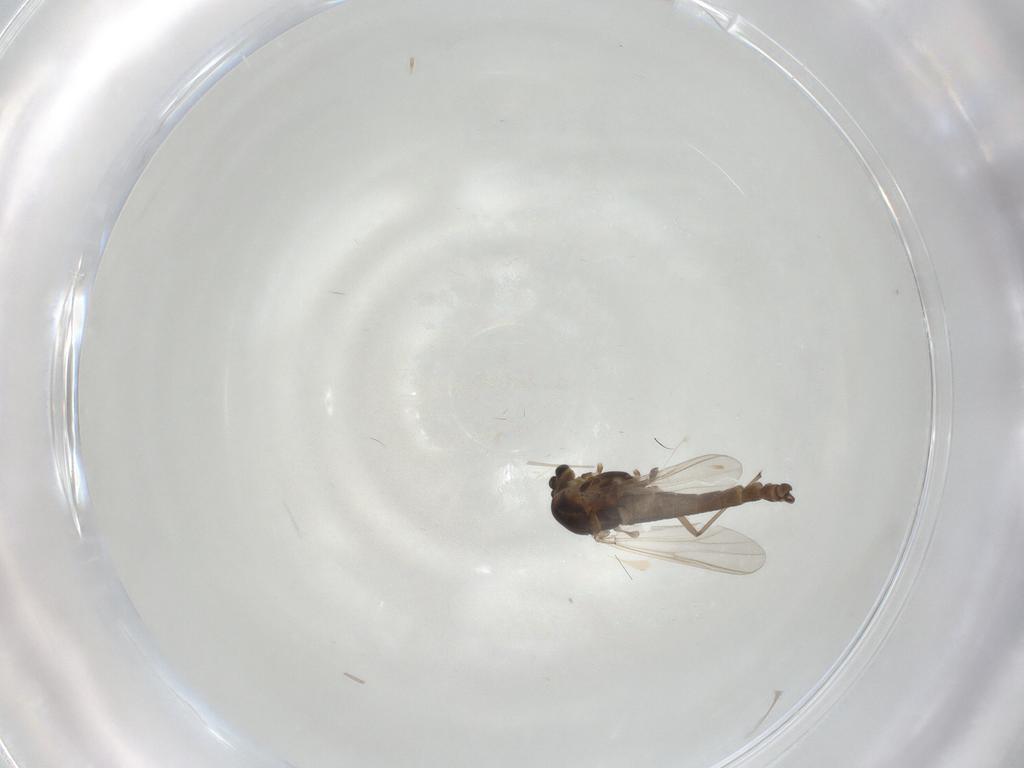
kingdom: Animalia
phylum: Arthropoda
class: Insecta
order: Diptera
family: Chironomidae
